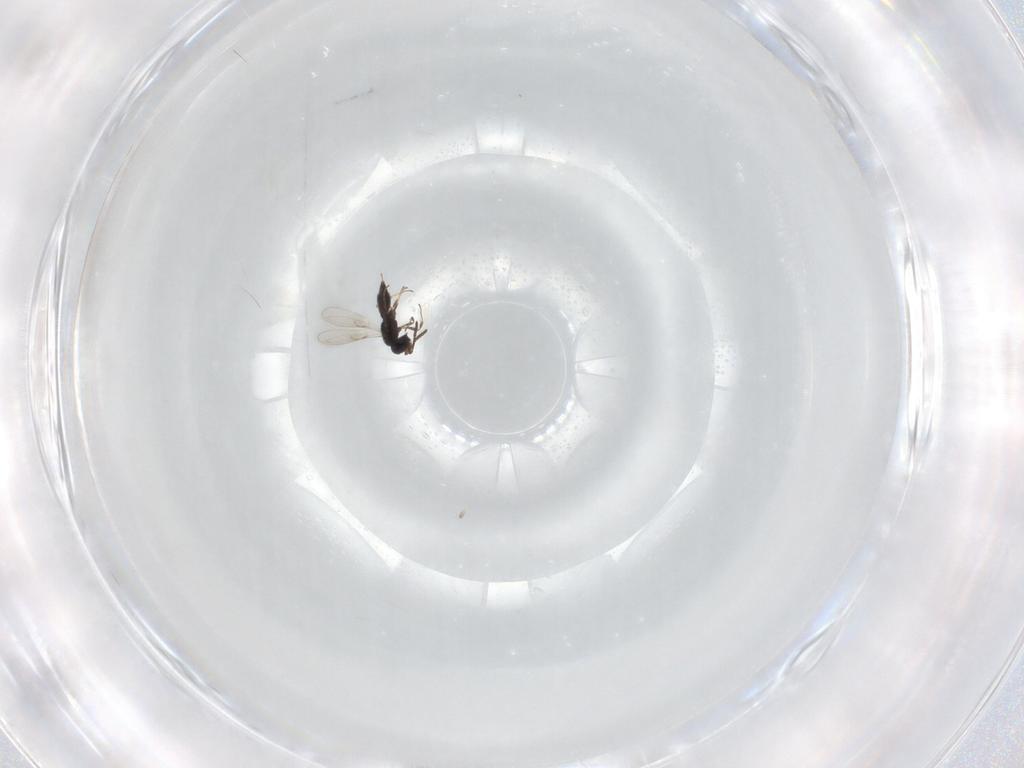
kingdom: Animalia
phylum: Arthropoda
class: Insecta
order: Hymenoptera
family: Scelionidae
